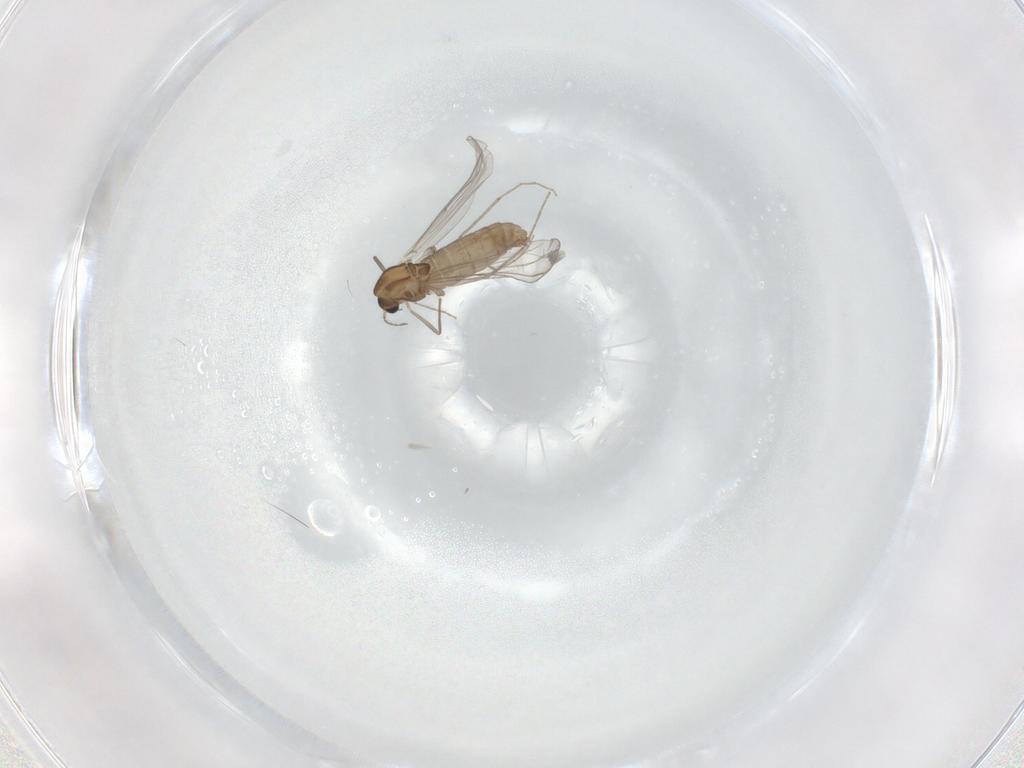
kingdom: Animalia
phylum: Arthropoda
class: Insecta
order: Diptera
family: Chironomidae
